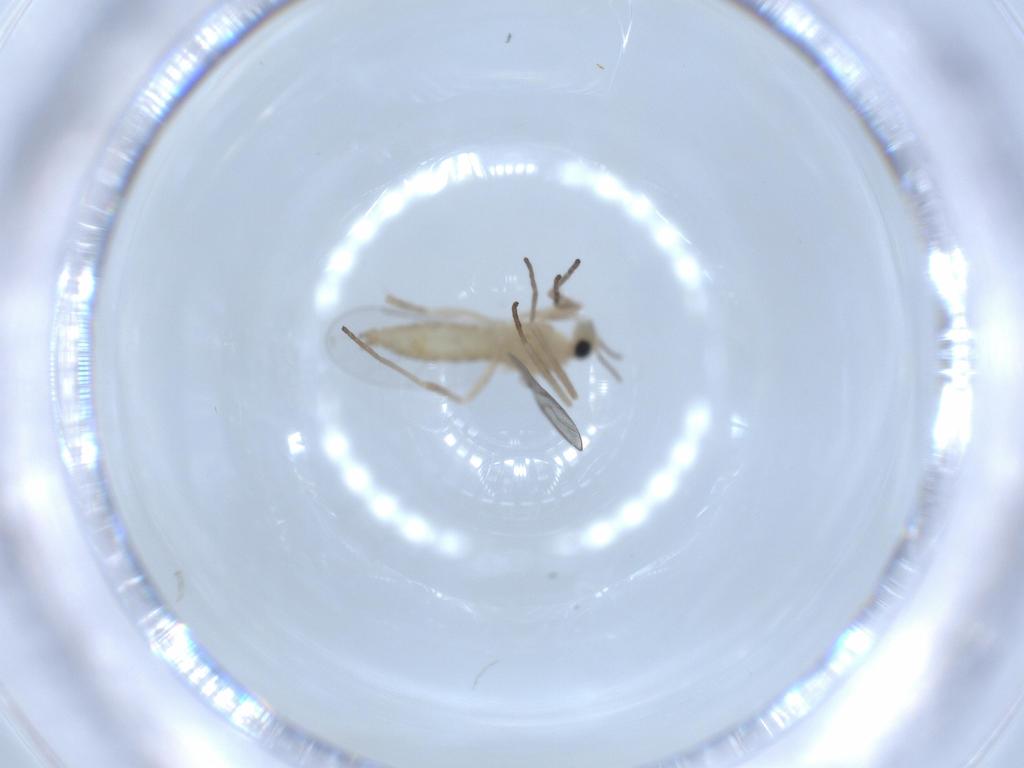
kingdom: Animalia
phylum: Arthropoda
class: Insecta
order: Diptera
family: Cecidomyiidae
